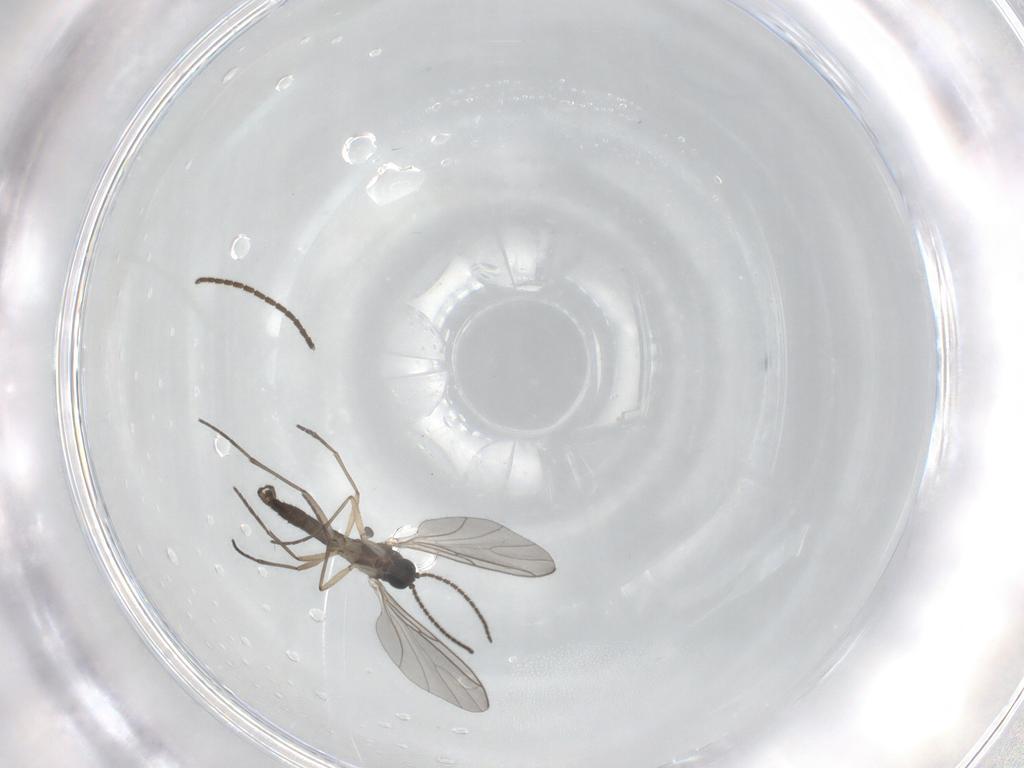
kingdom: Animalia
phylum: Arthropoda
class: Insecta
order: Diptera
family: Sciaridae
